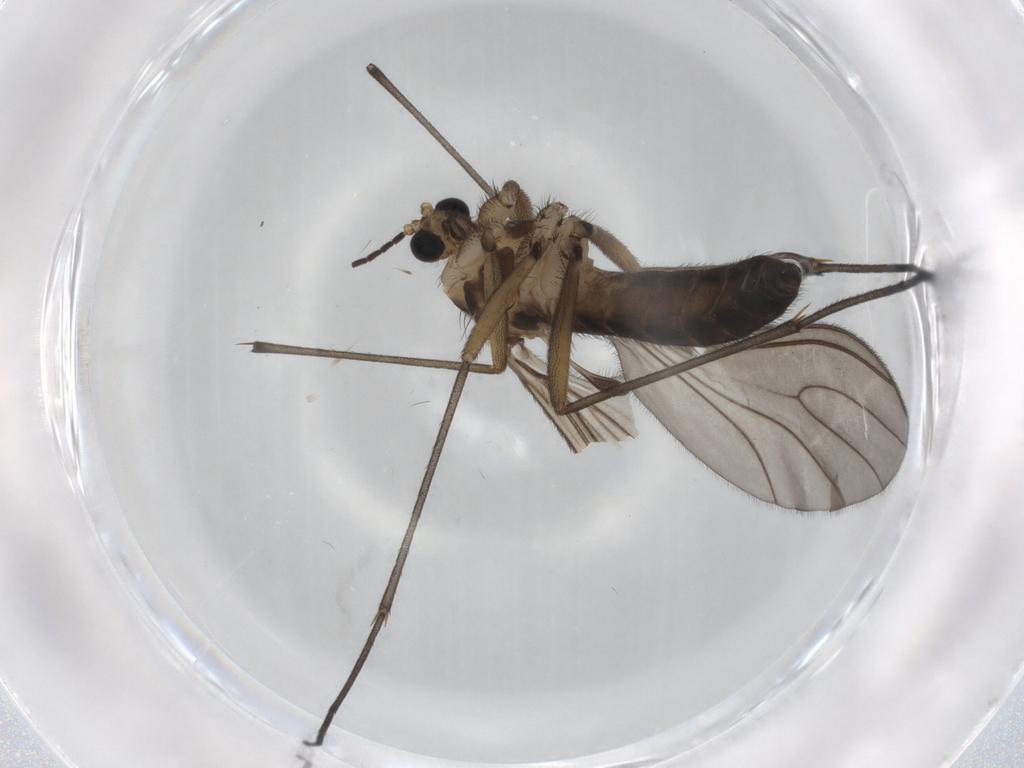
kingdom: Animalia
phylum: Arthropoda
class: Insecta
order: Diptera
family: Sciaridae
